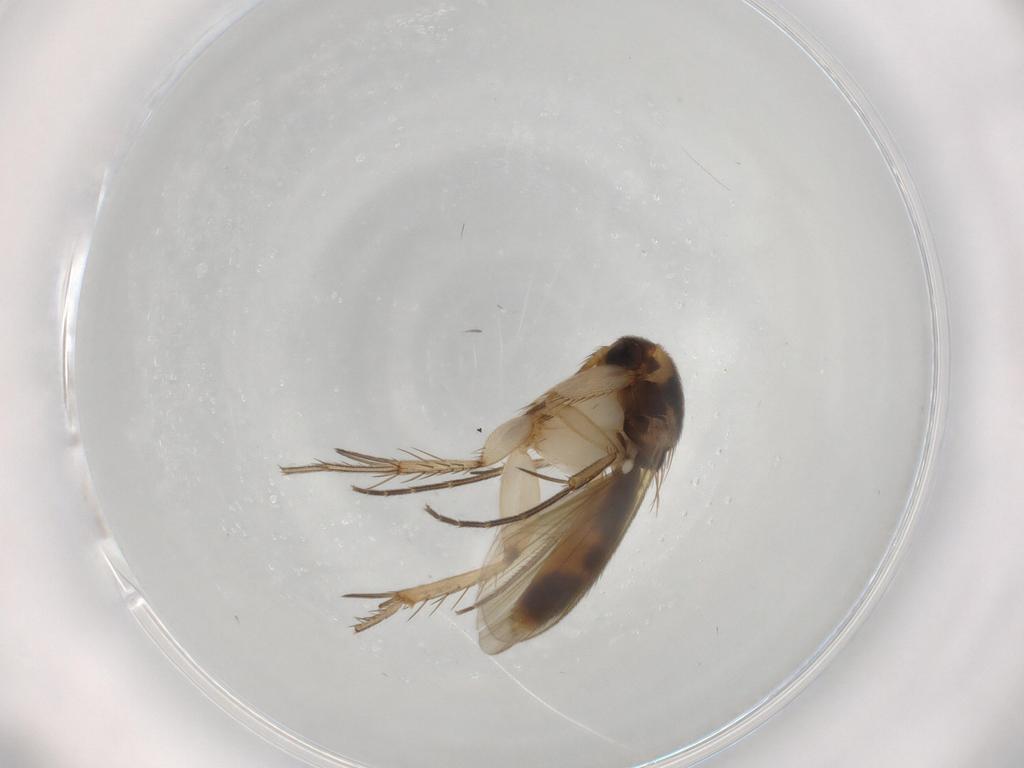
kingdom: Animalia
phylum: Arthropoda
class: Insecta
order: Diptera
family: Mycetophilidae
